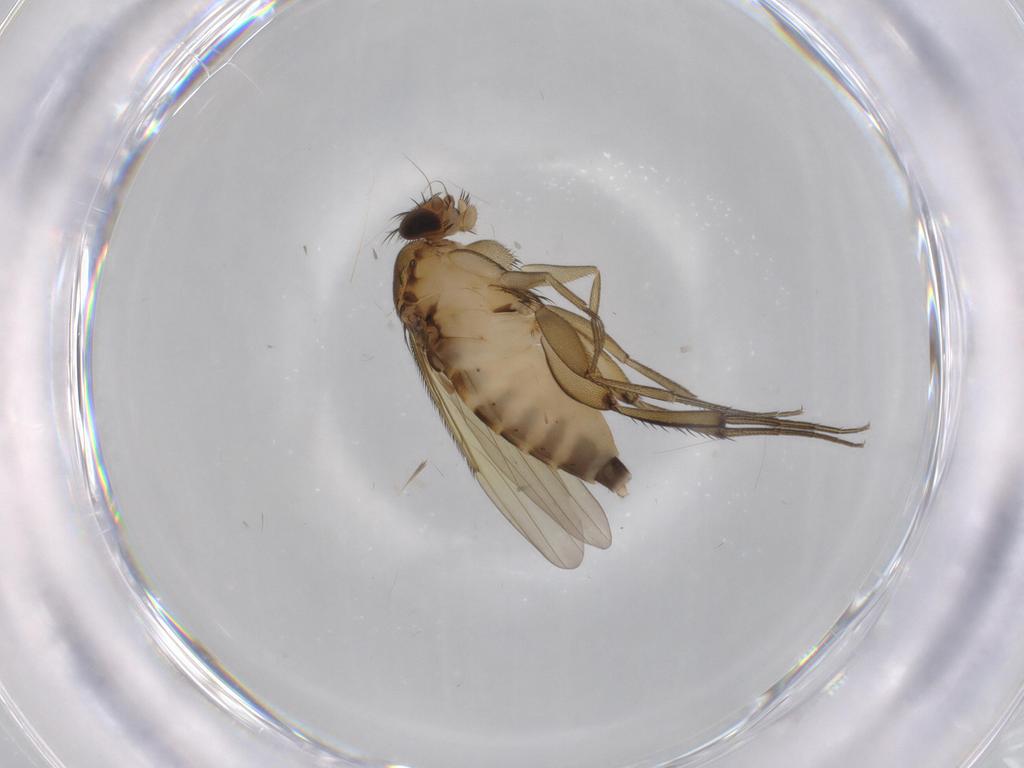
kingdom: Animalia
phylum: Arthropoda
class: Insecta
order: Diptera
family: Phoridae
